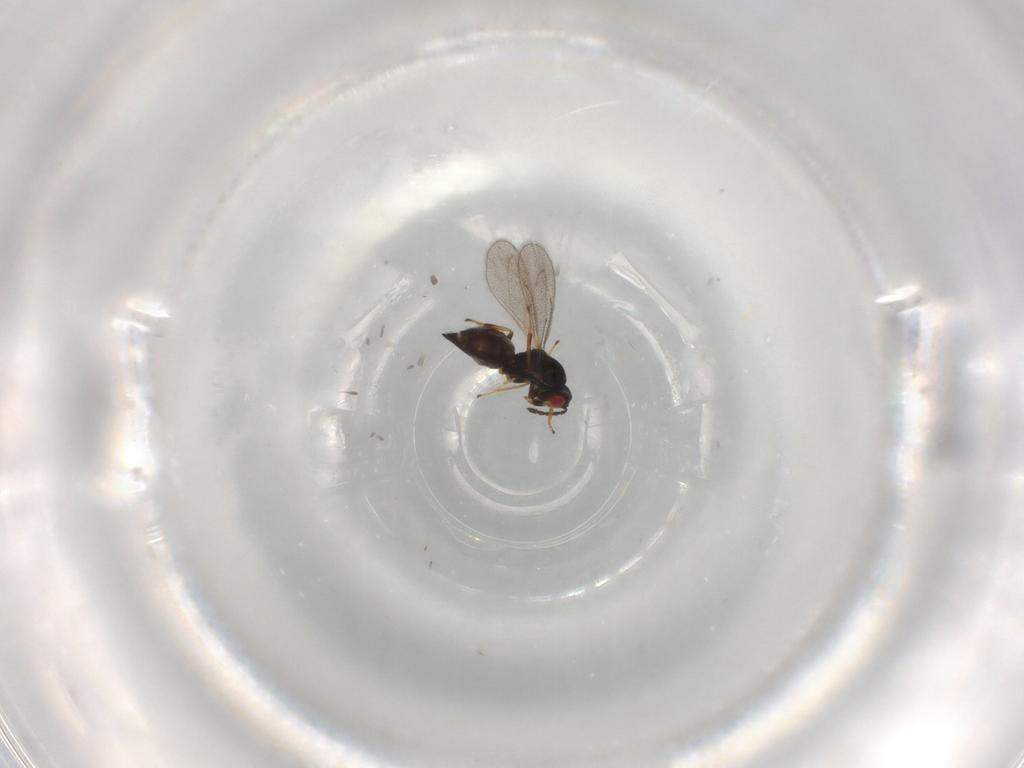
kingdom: Animalia
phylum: Arthropoda
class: Insecta
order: Hymenoptera
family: Eulophidae
